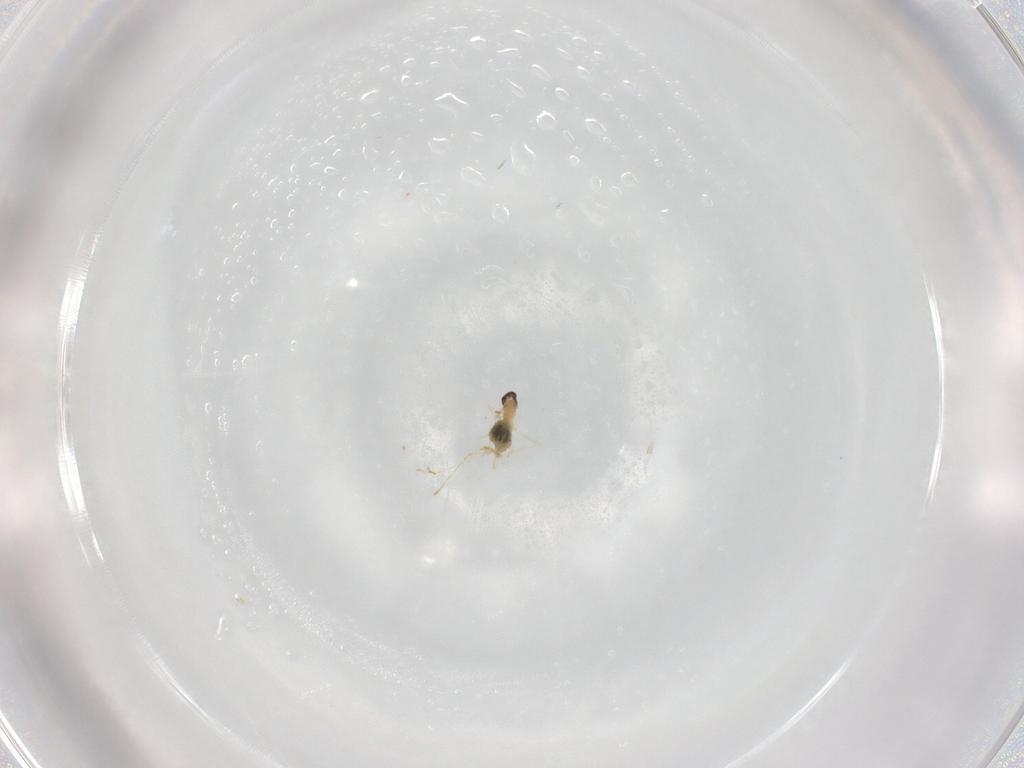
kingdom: Animalia
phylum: Arthropoda
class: Insecta
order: Diptera
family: Cecidomyiidae
